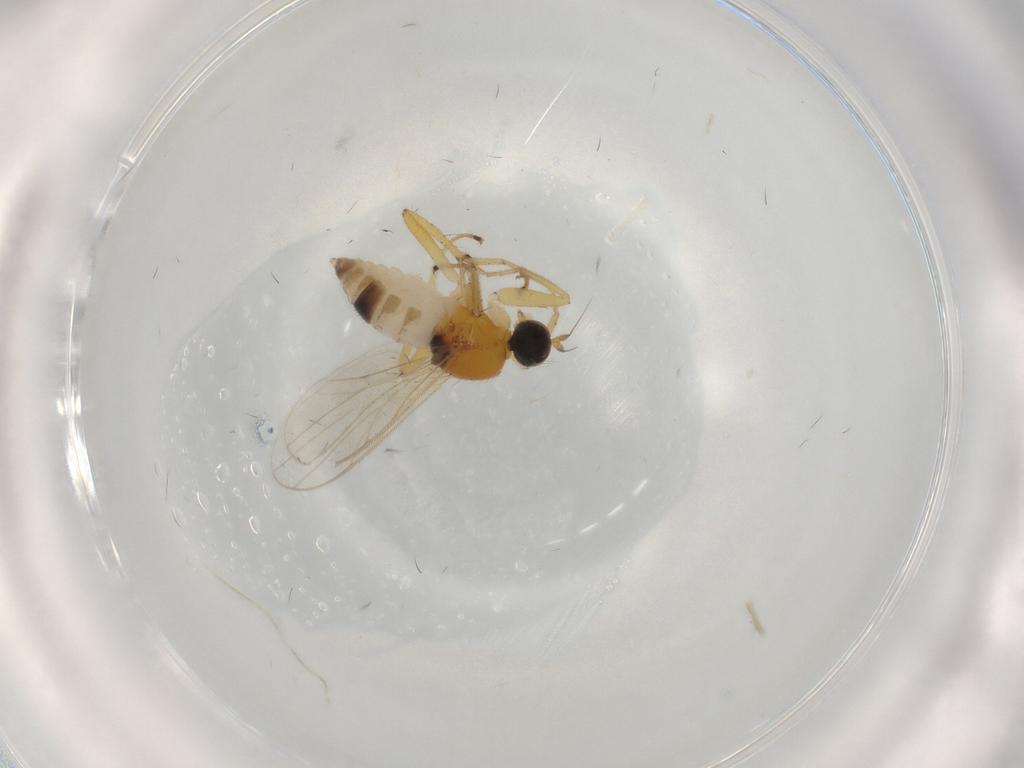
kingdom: Animalia
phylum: Arthropoda
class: Insecta
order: Diptera
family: Hybotidae
